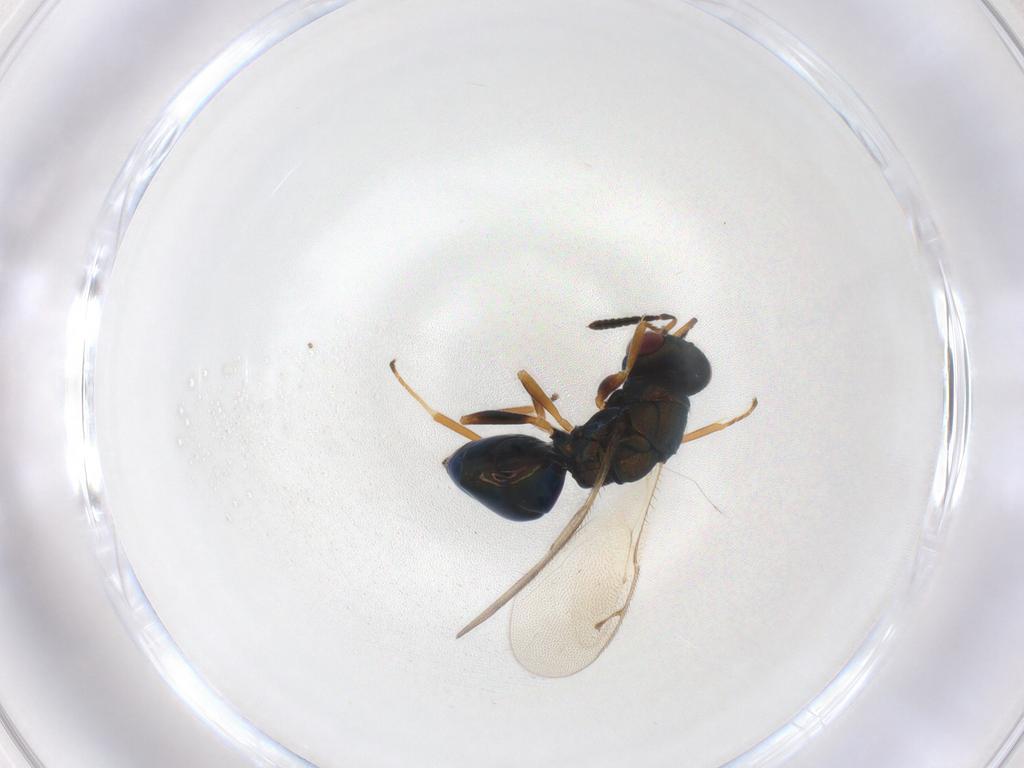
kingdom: Animalia
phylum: Arthropoda
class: Insecta
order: Hymenoptera
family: Pteromalidae
